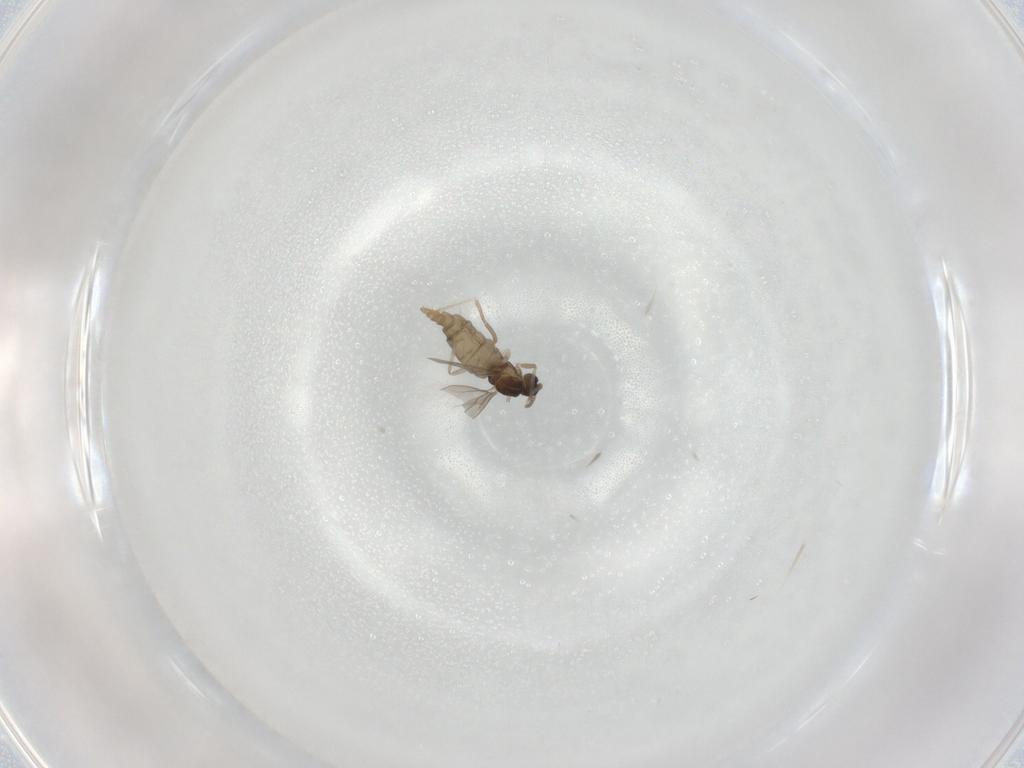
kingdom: Animalia
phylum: Arthropoda
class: Insecta
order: Diptera
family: Cecidomyiidae
